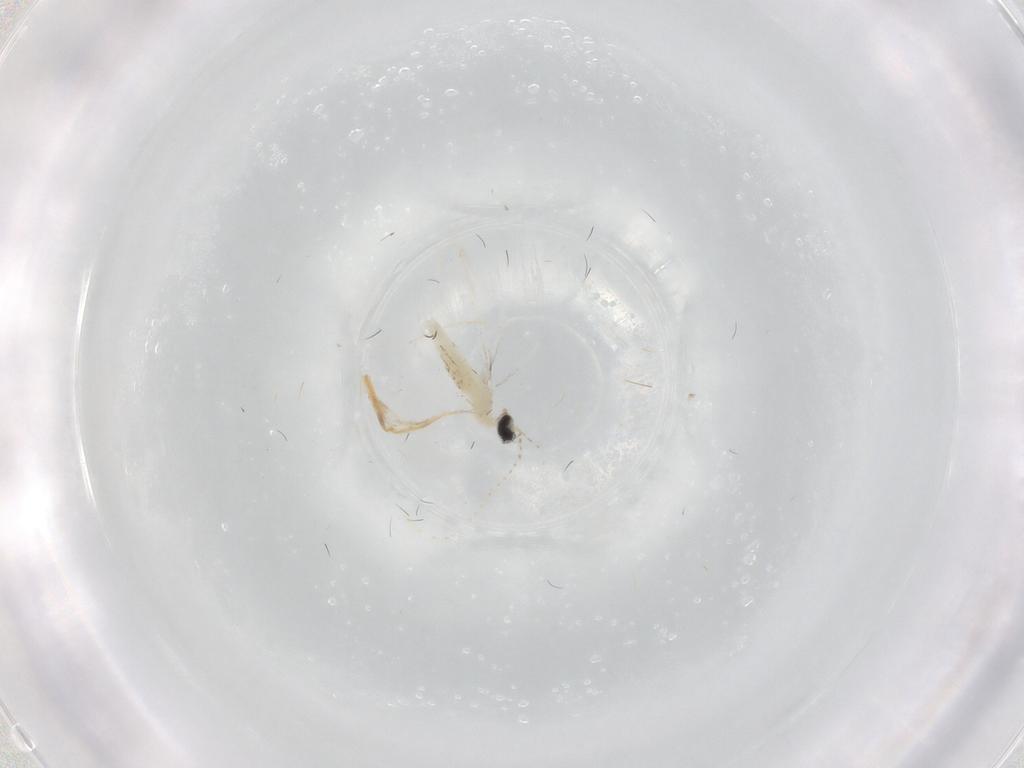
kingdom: Animalia
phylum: Arthropoda
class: Insecta
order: Diptera
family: Cecidomyiidae
